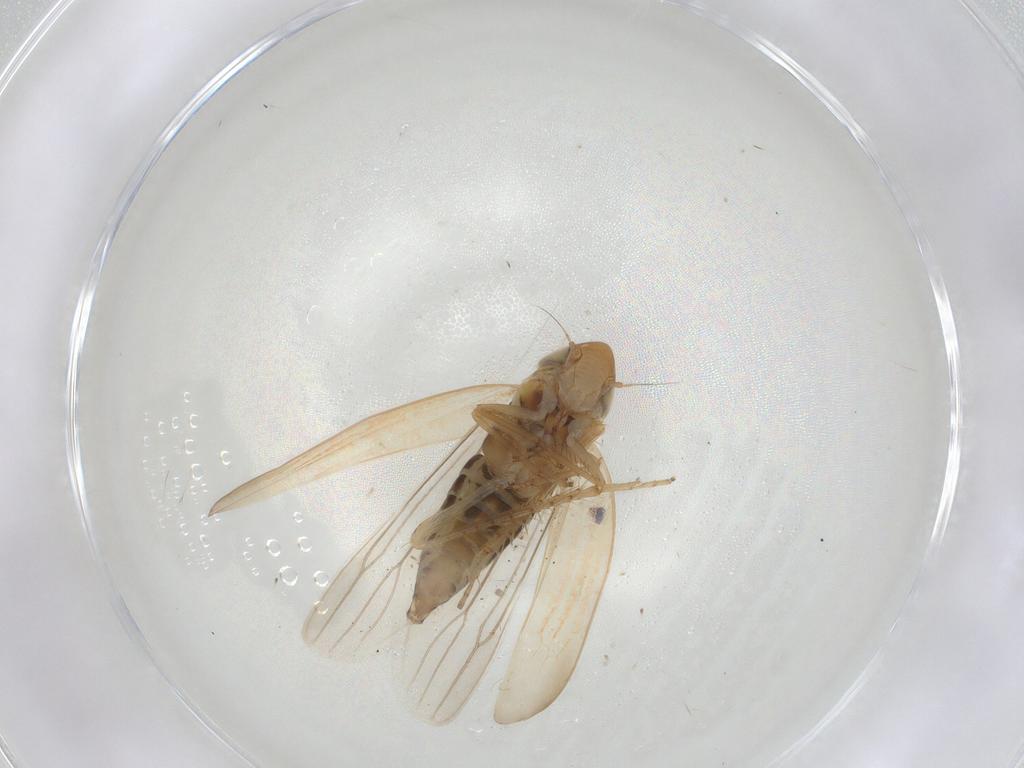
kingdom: Animalia
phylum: Arthropoda
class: Insecta
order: Hemiptera
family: Cicadellidae
